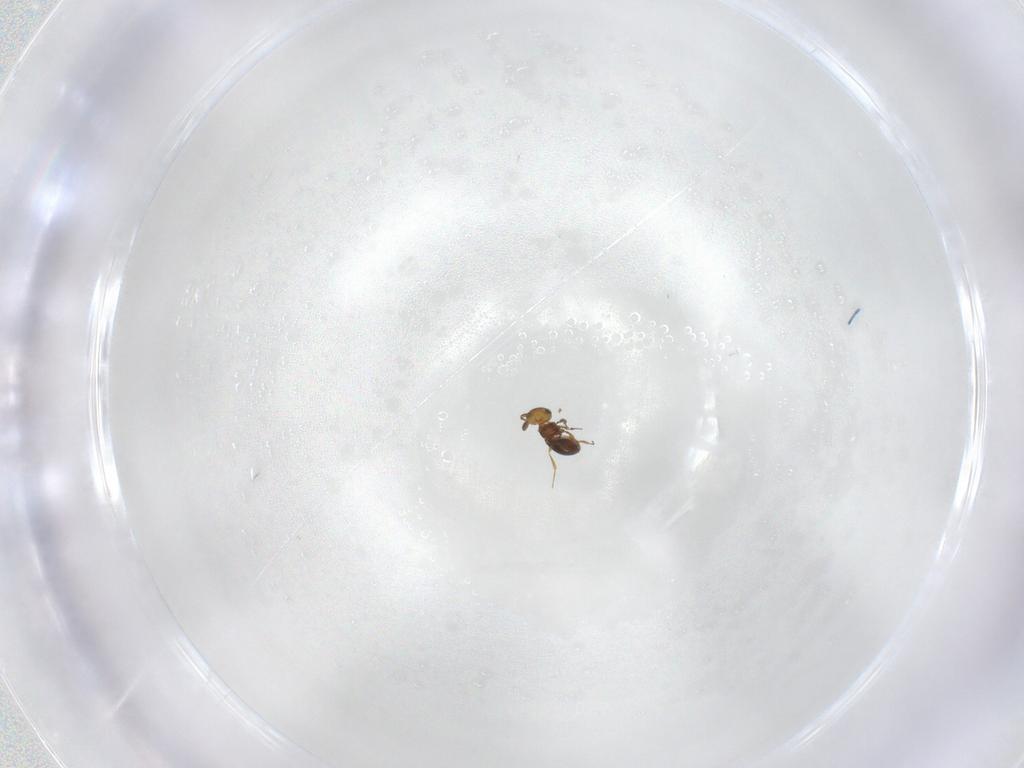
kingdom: Animalia
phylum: Arthropoda
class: Insecta
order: Hymenoptera
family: Platygastridae
